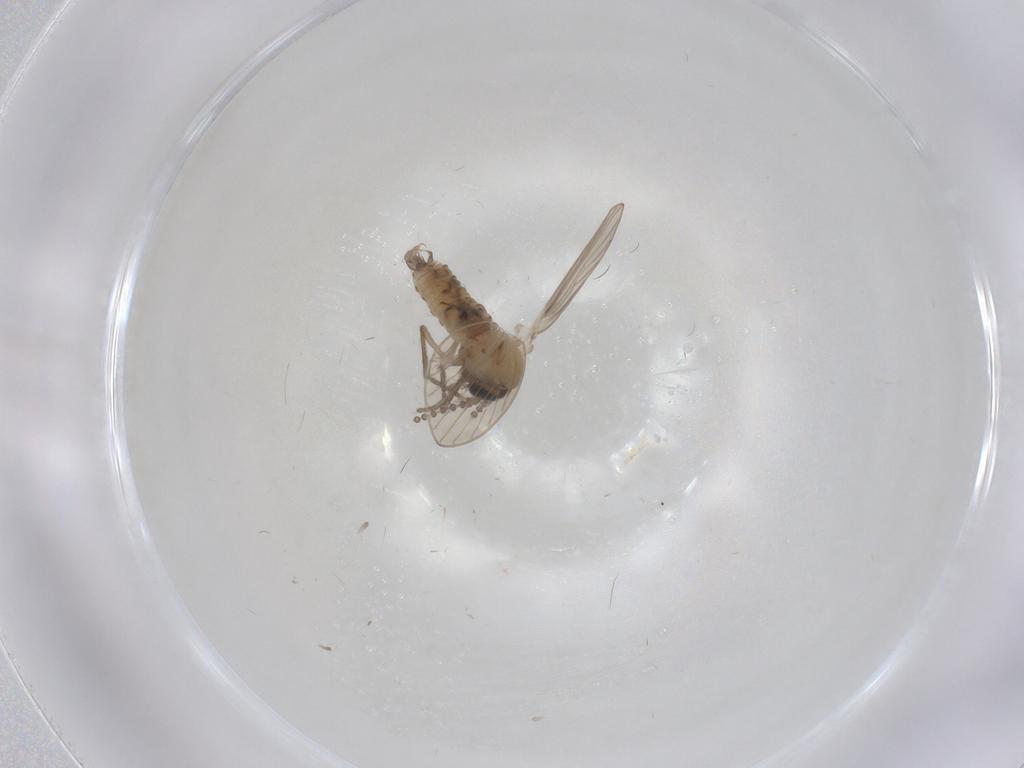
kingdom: Animalia
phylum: Arthropoda
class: Insecta
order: Diptera
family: Psychodidae
